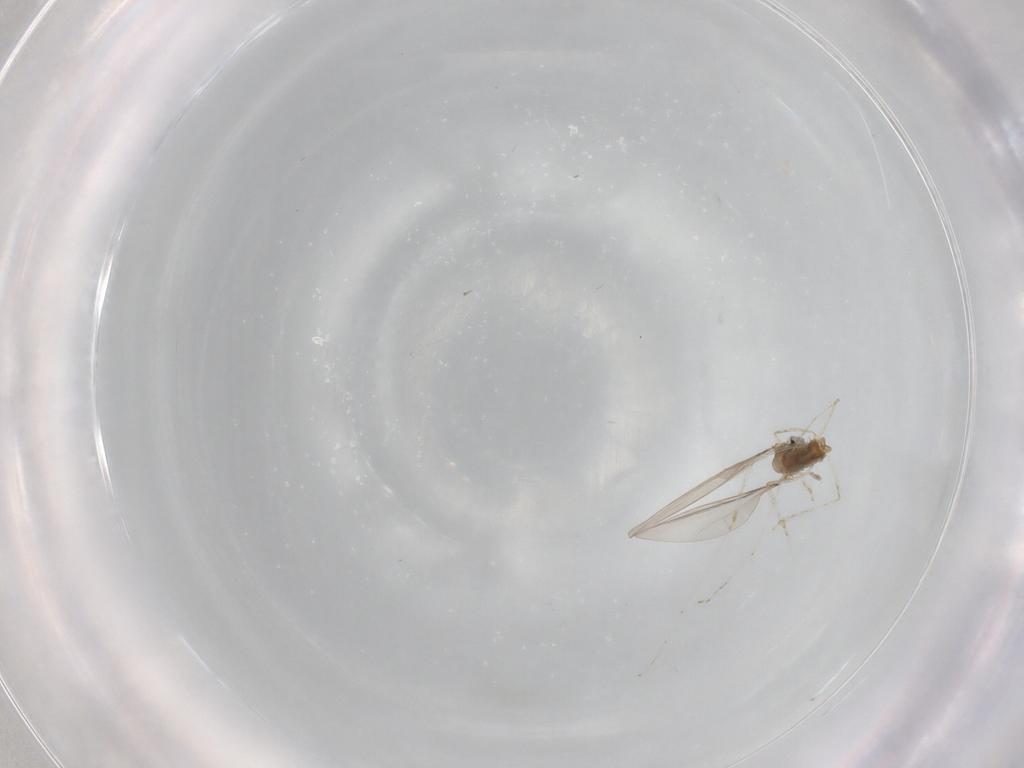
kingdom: Animalia
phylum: Arthropoda
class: Insecta
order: Diptera
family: Cecidomyiidae
